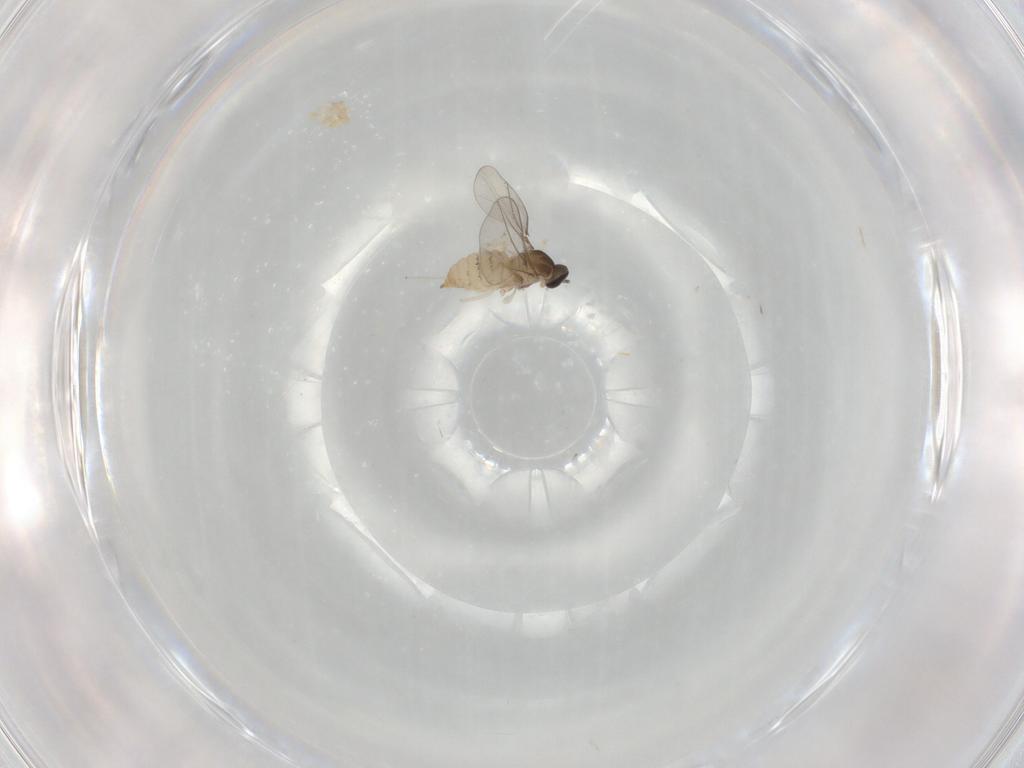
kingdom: Animalia
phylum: Arthropoda
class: Insecta
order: Diptera
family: Cecidomyiidae
